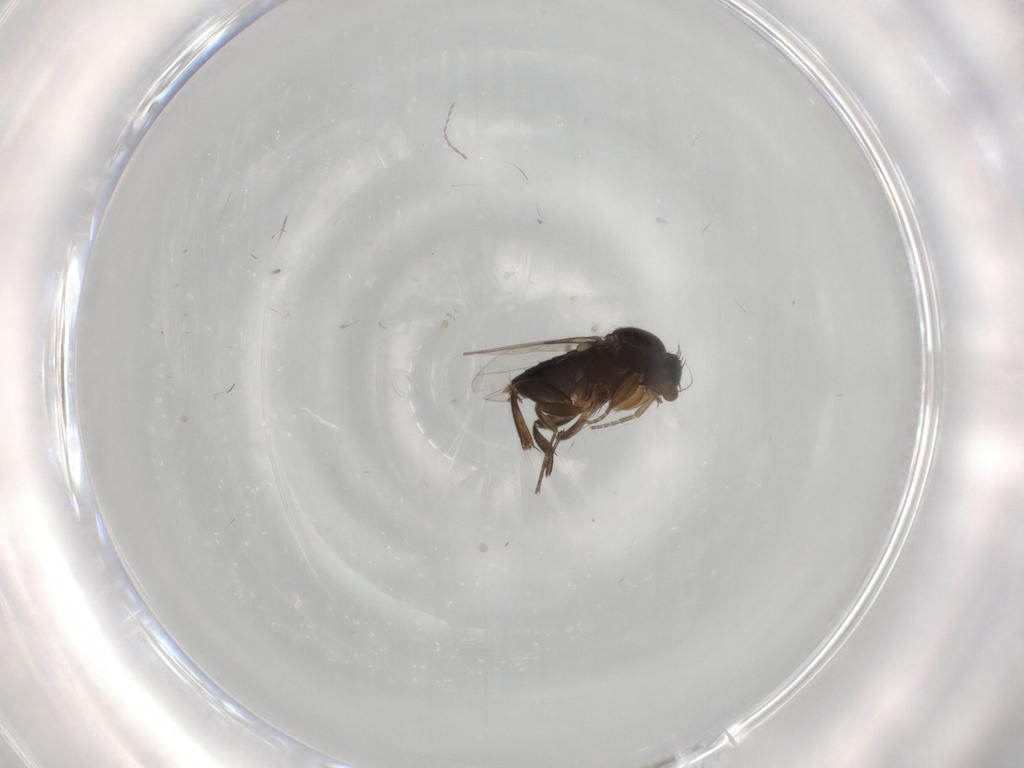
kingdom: Animalia
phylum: Arthropoda
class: Insecta
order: Diptera
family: Phoridae
